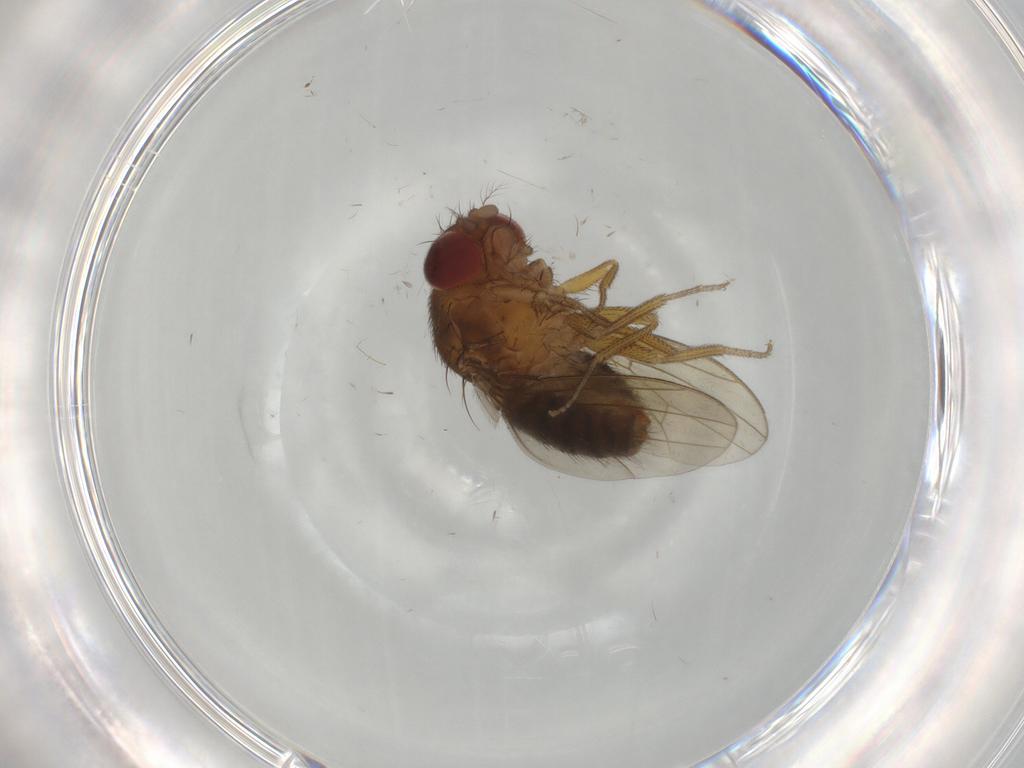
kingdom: Animalia
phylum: Arthropoda
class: Insecta
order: Diptera
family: Drosophilidae
